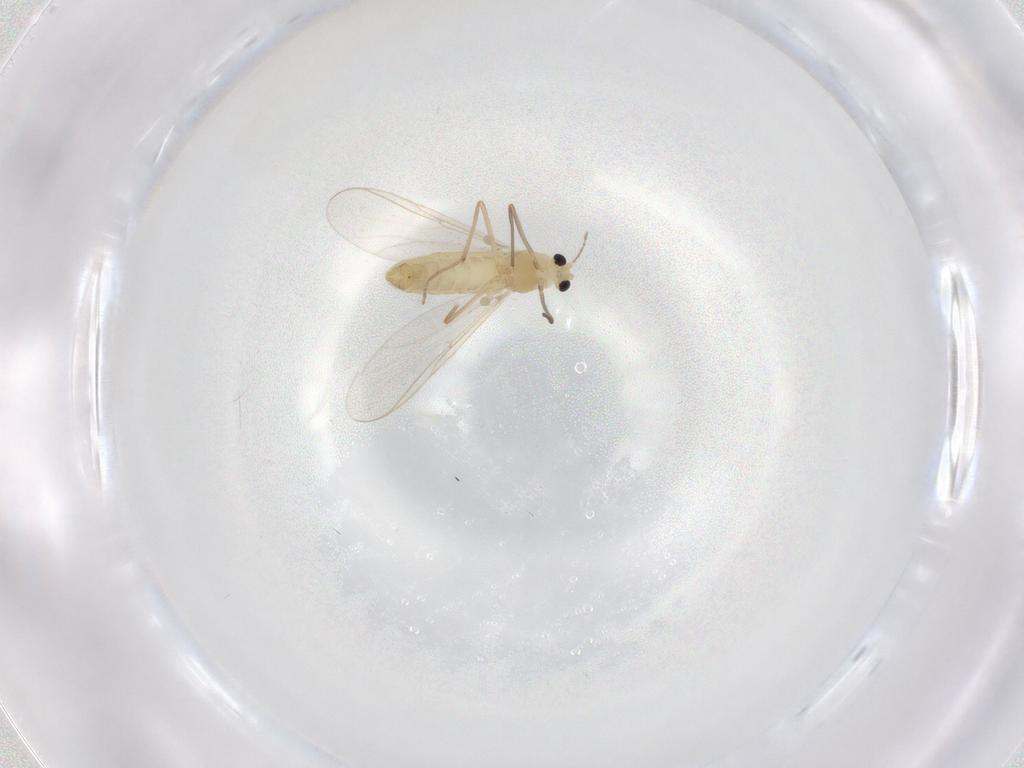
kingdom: Animalia
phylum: Arthropoda
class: Insecta
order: Diptera
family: Chironomidae
